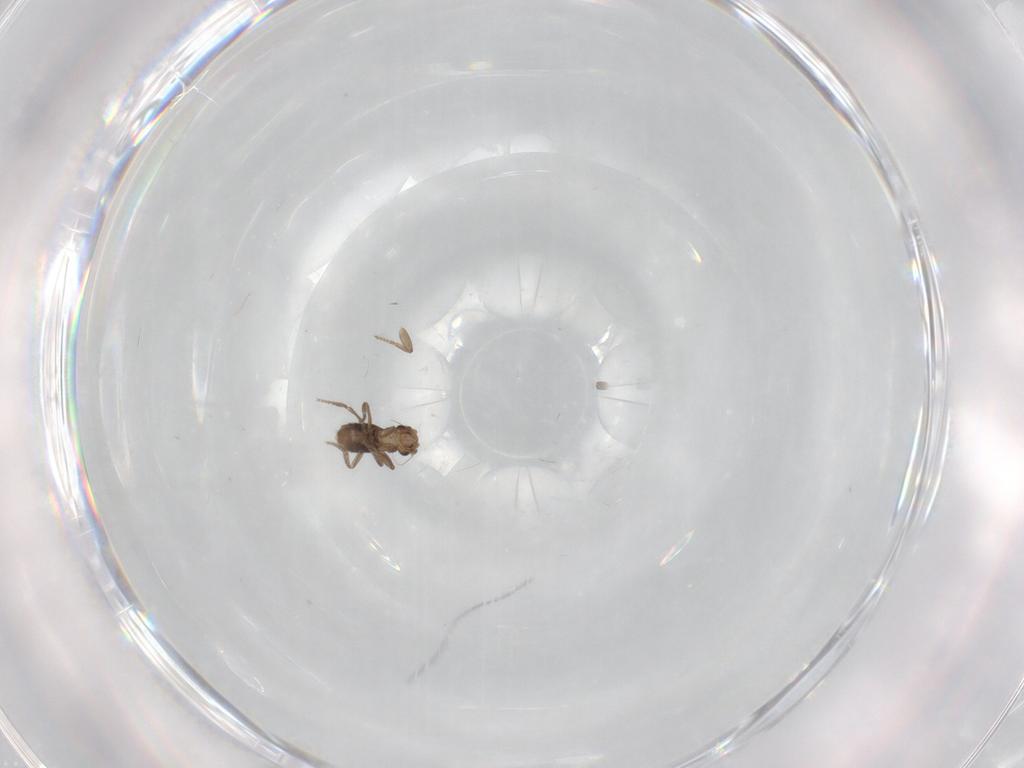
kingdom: Animalia
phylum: Arthropoda
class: Insecta
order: Diptera
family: Phoridae
